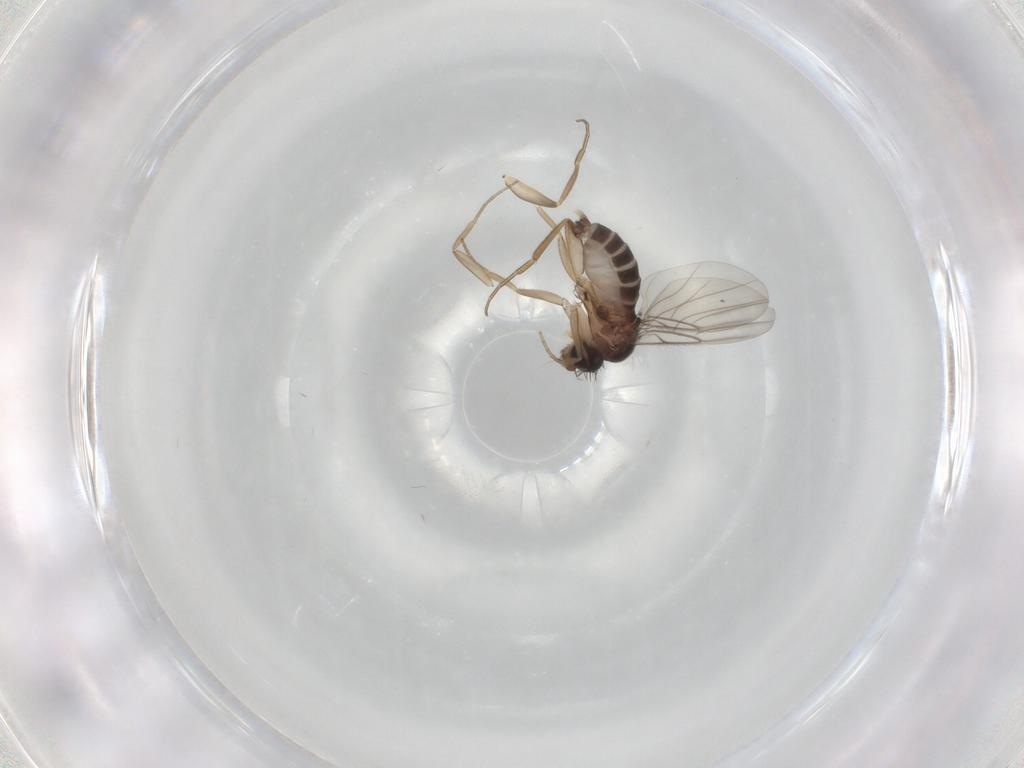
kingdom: Animalia
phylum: Arthropoda
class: Insecta
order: Diptera
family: Phoridae
